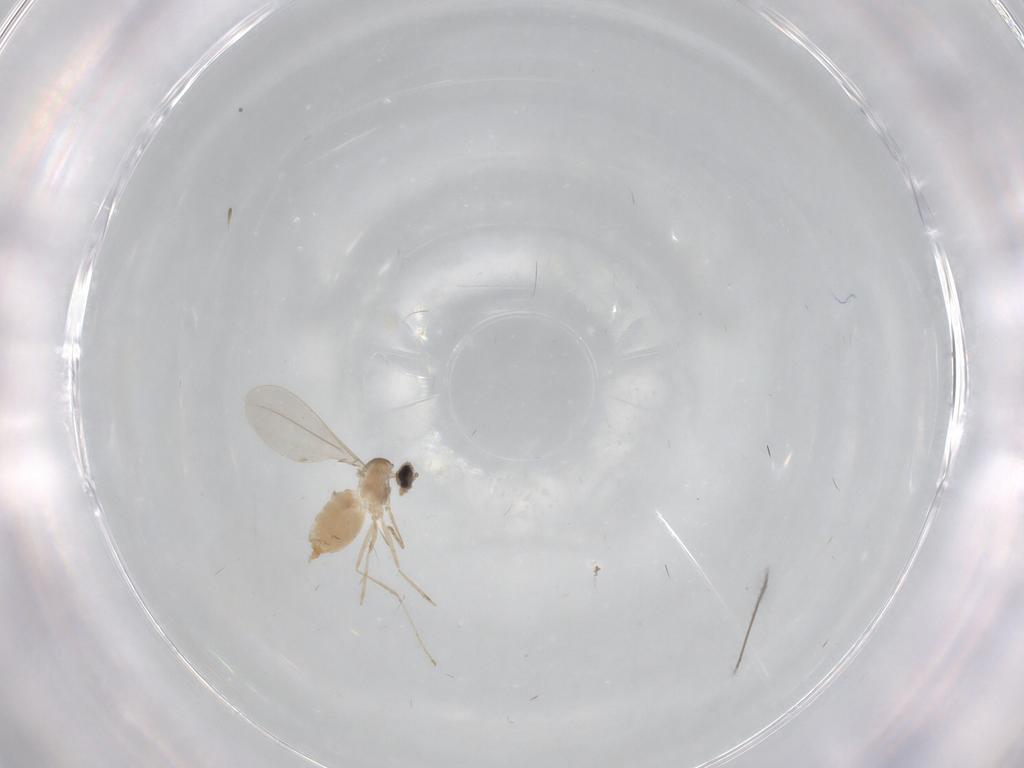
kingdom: Animalia
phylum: Arthropoda
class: Insecta
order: Diptera
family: Cecidomyiidae
